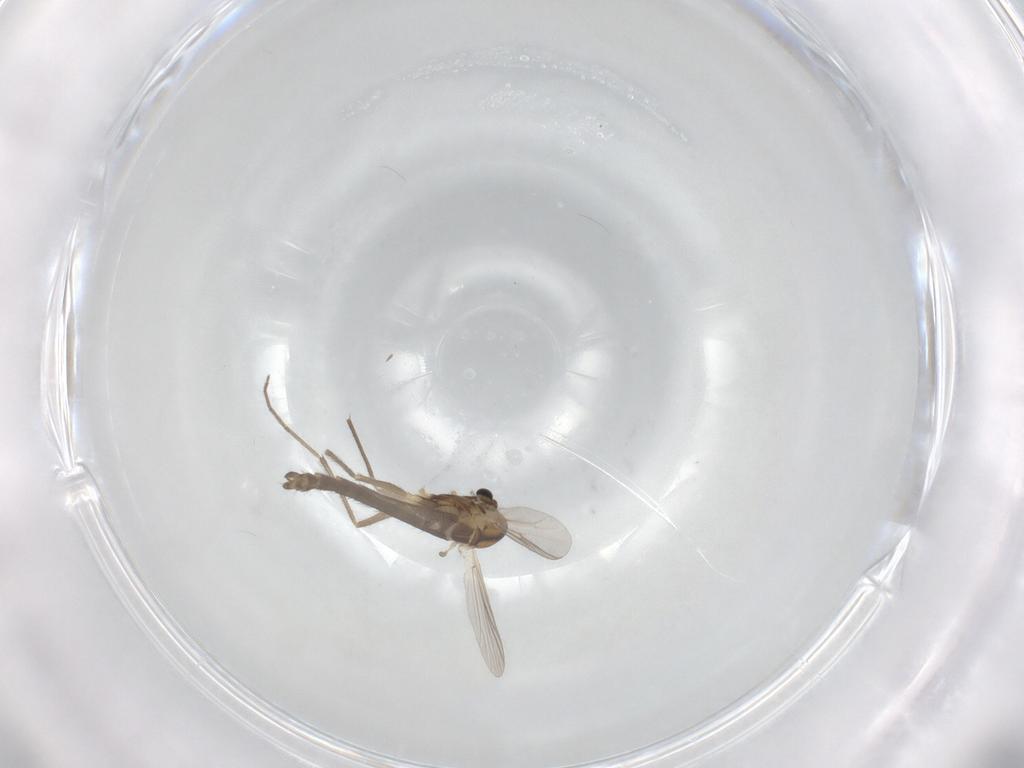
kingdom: Animalia
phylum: Arthropoda
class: Insecta
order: Diptera
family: Chironomidae
